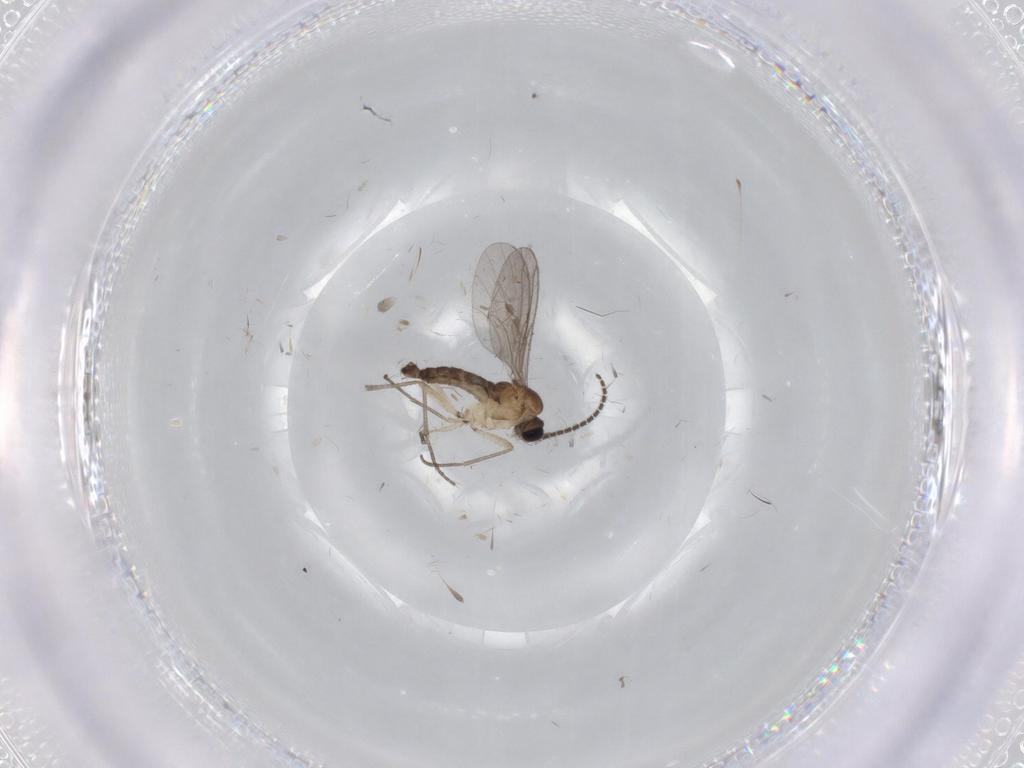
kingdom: Animalia
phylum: Arthropoda
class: Insecta
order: Diptera
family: Sciaridae
